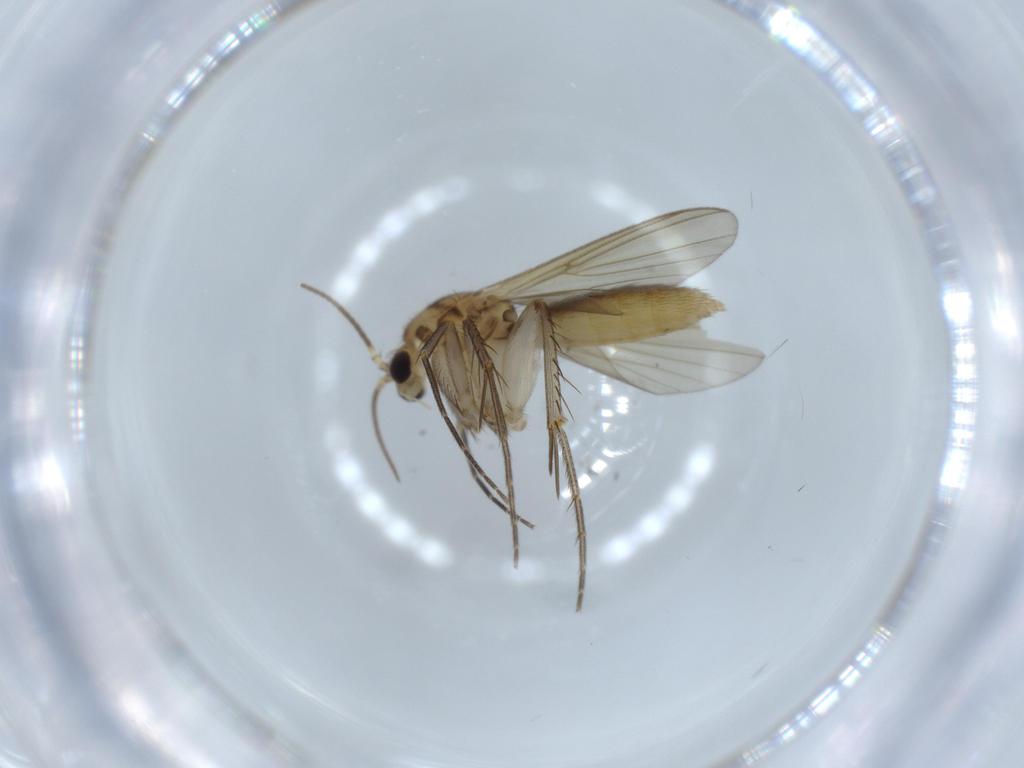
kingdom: Animalia
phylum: Arthropoda
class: Insecta
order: Diptera
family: Mycetophilidae
